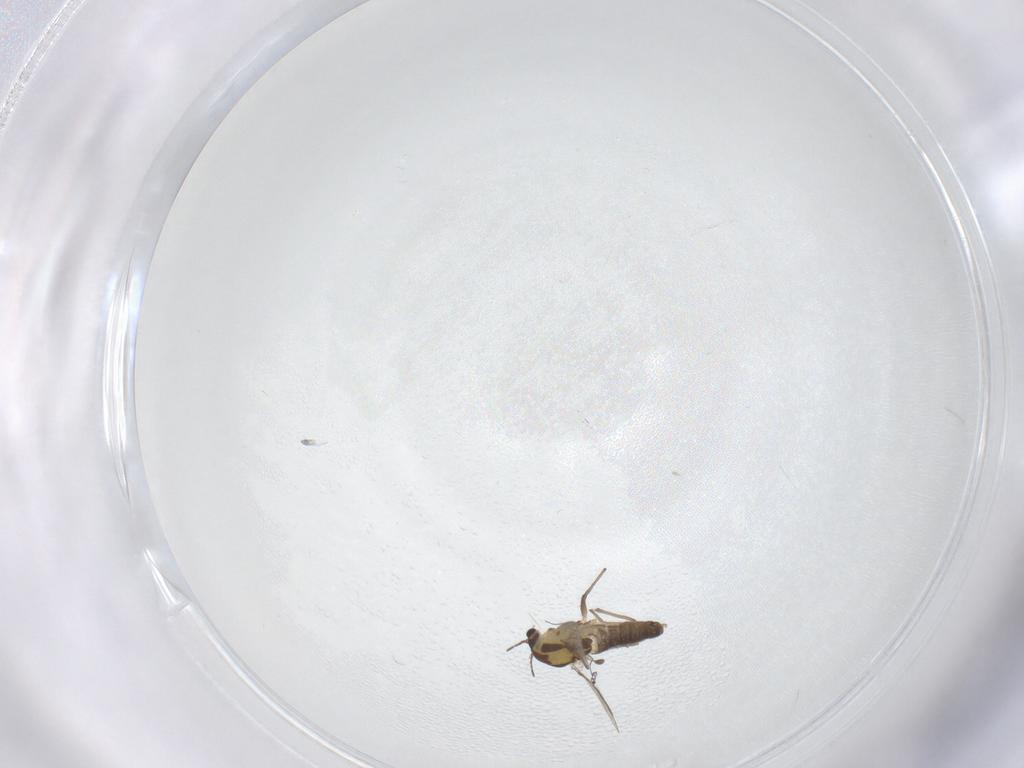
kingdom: Animalia
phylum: Arthropoda
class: Insecta
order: Diptera
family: Chironomidae
